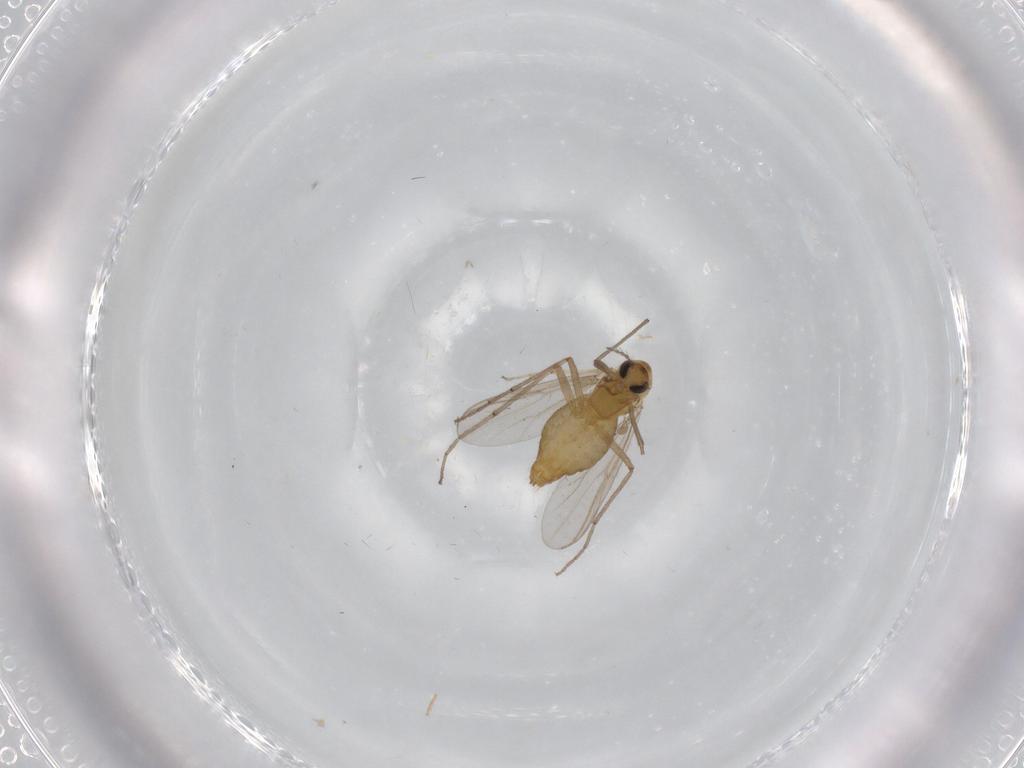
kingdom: Animalia
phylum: Arthropoda
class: Insecta
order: Diptera
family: Chironomidae
